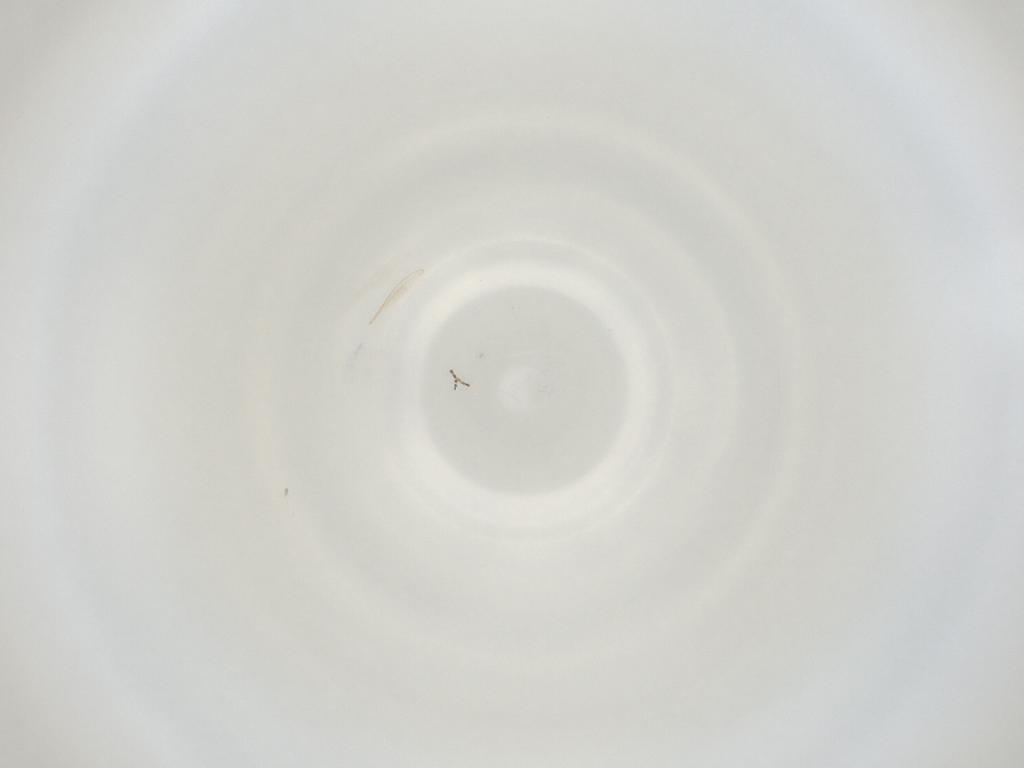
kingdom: Animalia
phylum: Arthropoda
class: Insecta
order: Diptera
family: Cecidomyiidae
